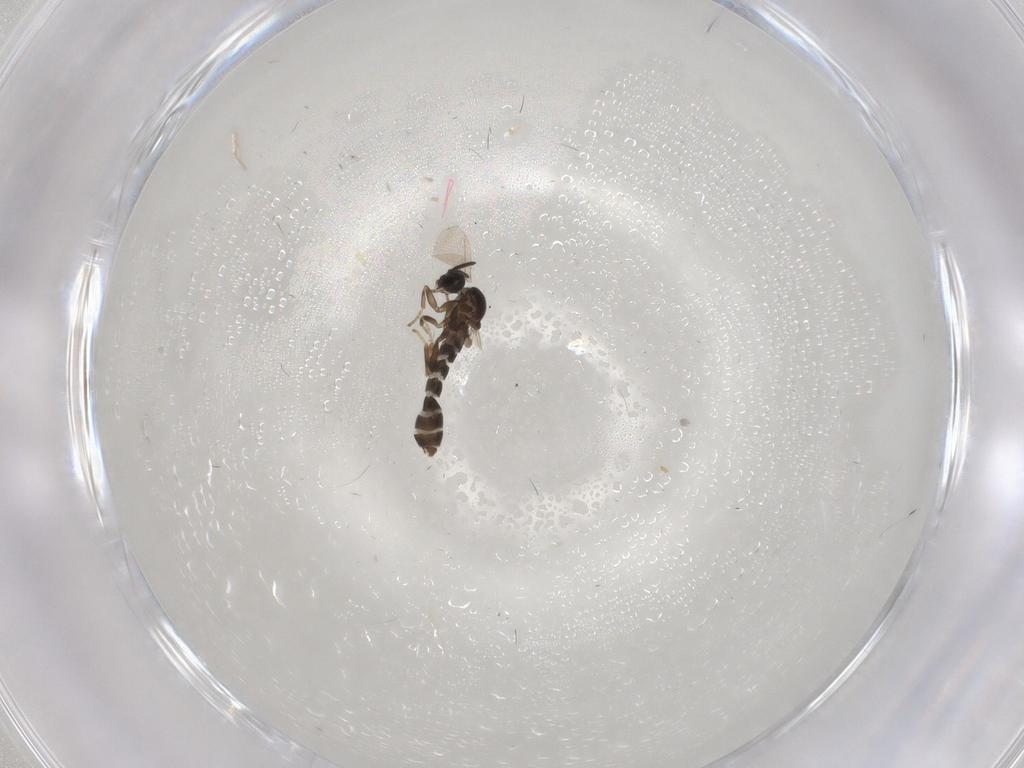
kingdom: Animalia
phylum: Arthropoda
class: Insecta
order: Diptera
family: Scatopsidae
